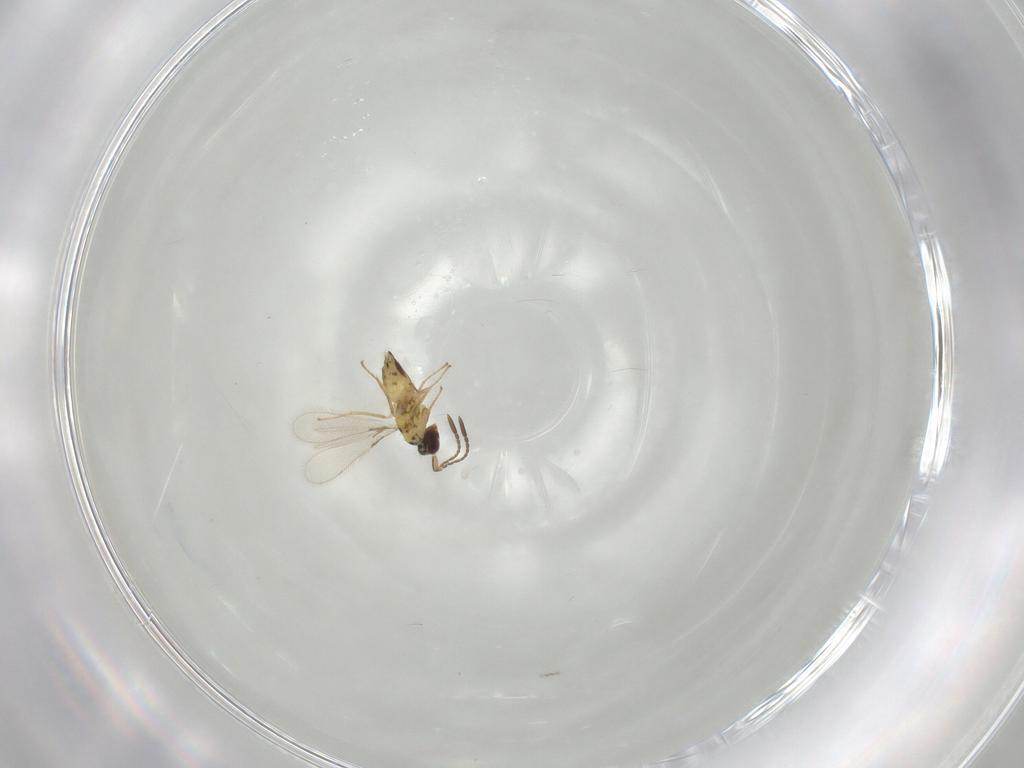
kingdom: Animalia
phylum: Arthropoda
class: Insecta
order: Hymenoptera
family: Mymaridae
